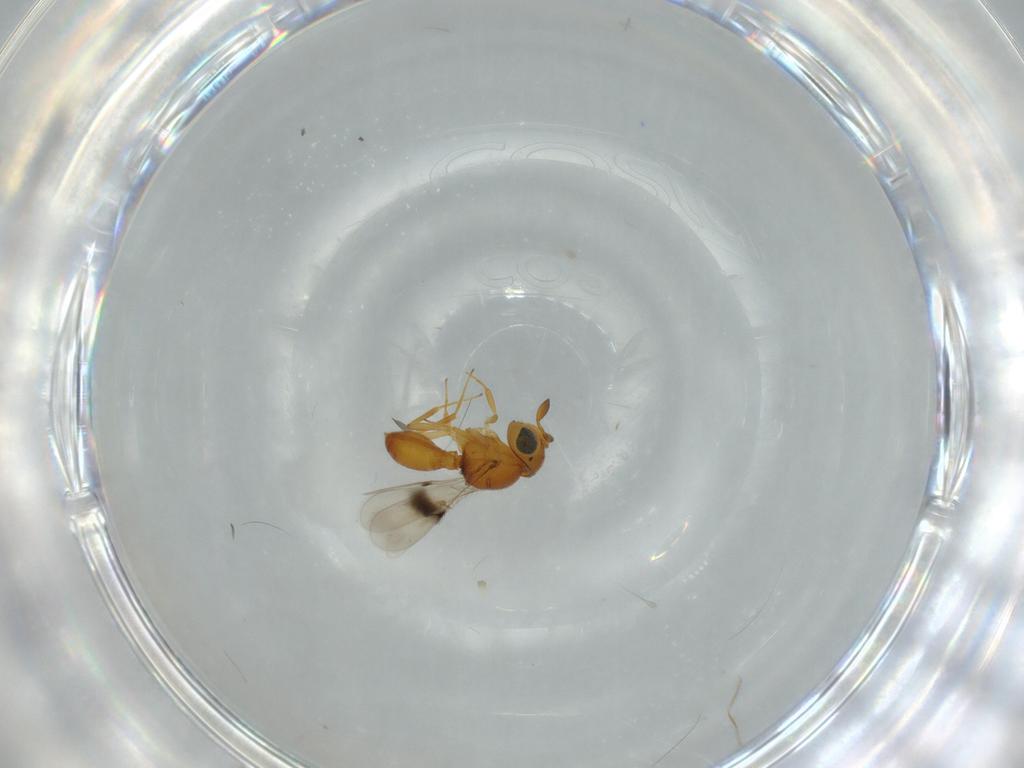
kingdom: Animalia
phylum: Arthropoda
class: Insecta
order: Hymenoptera
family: Scelionidae
